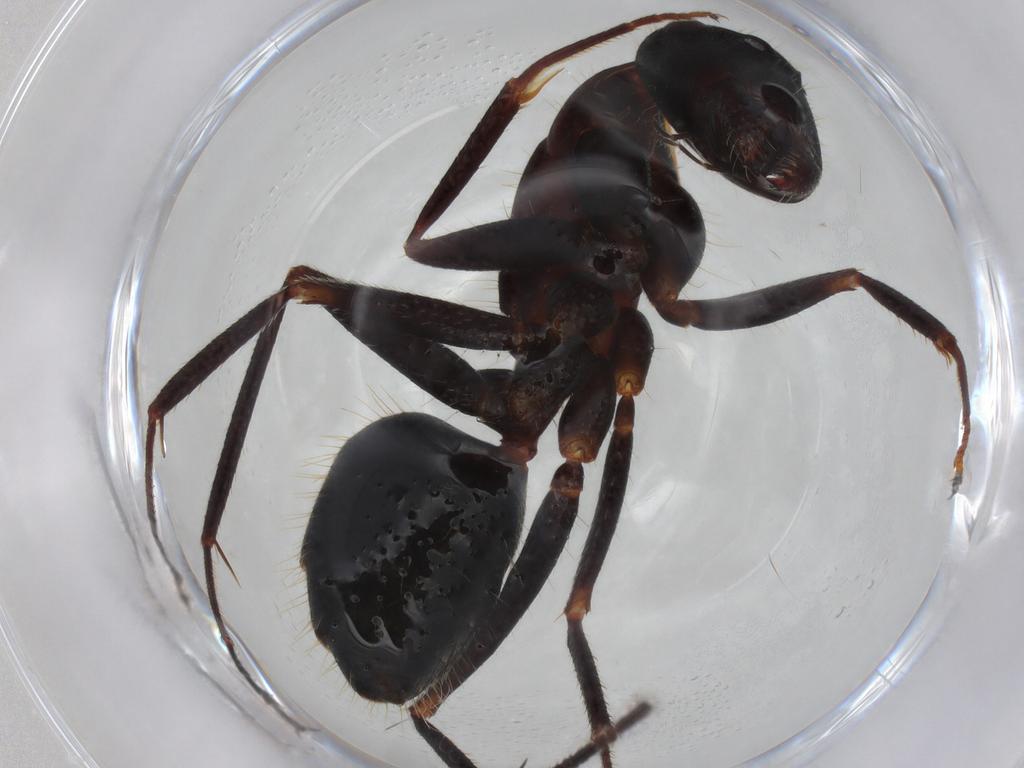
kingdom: Animalia
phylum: Arthropoda
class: Insecta
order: Hymenoptera
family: Formicidae
